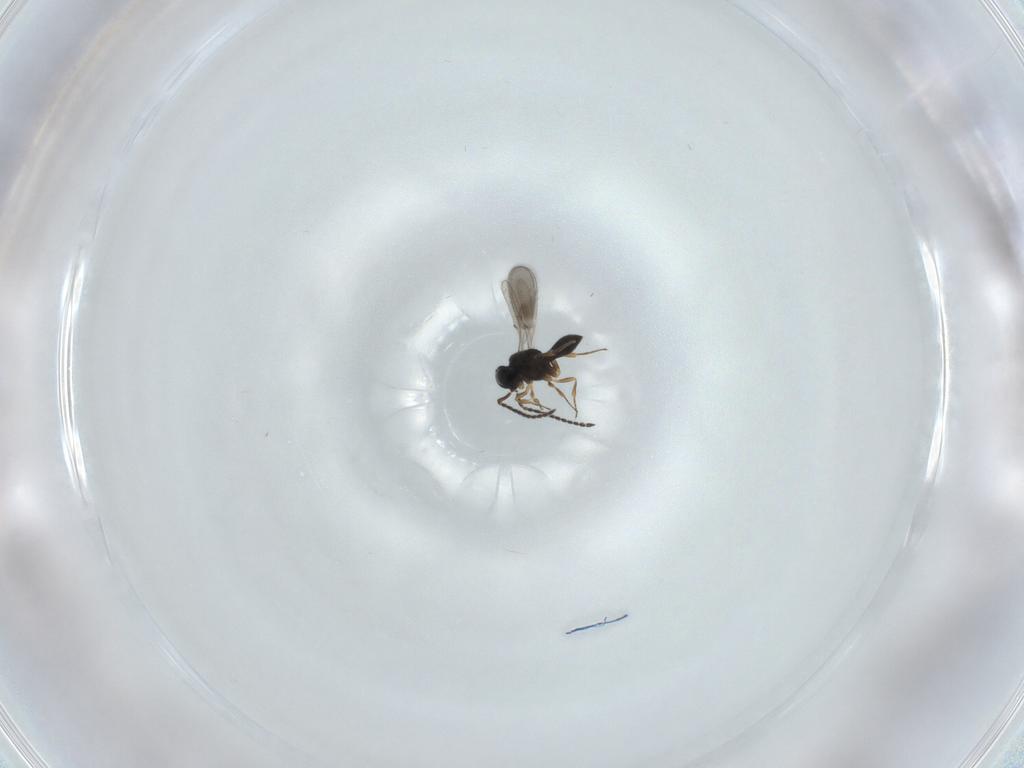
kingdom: Animalia
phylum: Arthropoda
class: Insecta
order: Hymenoptera
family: Scelionidae
